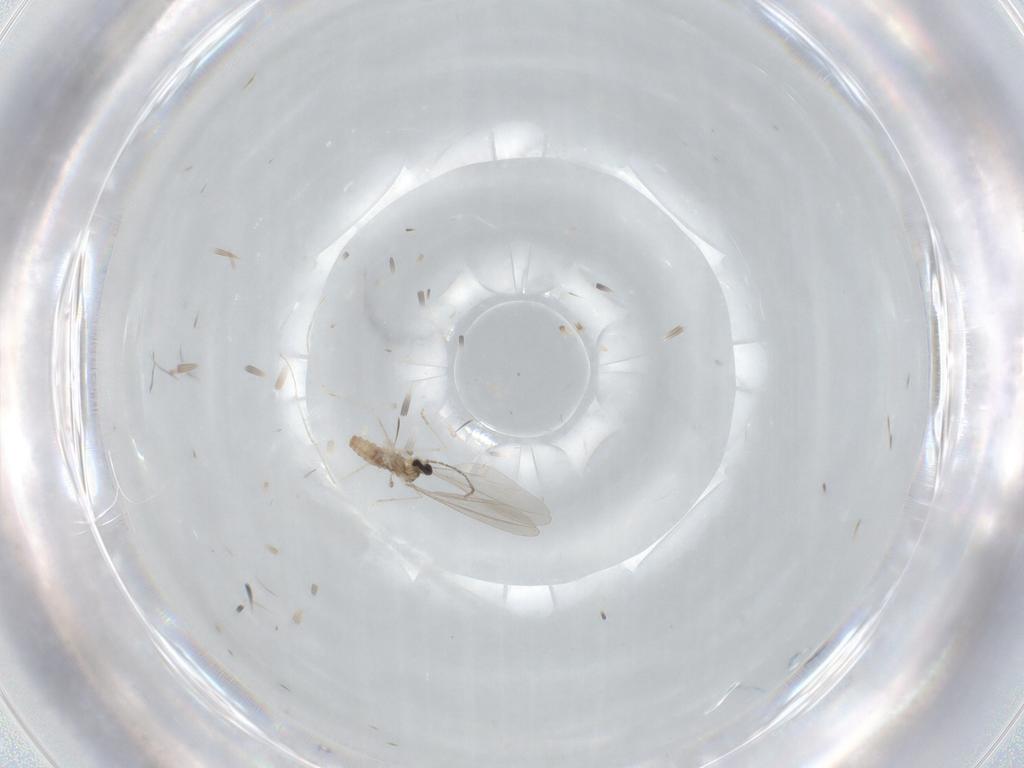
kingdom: Animalia
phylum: Arthropoda
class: Insecta
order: Diptera
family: Cecidomyiidae
